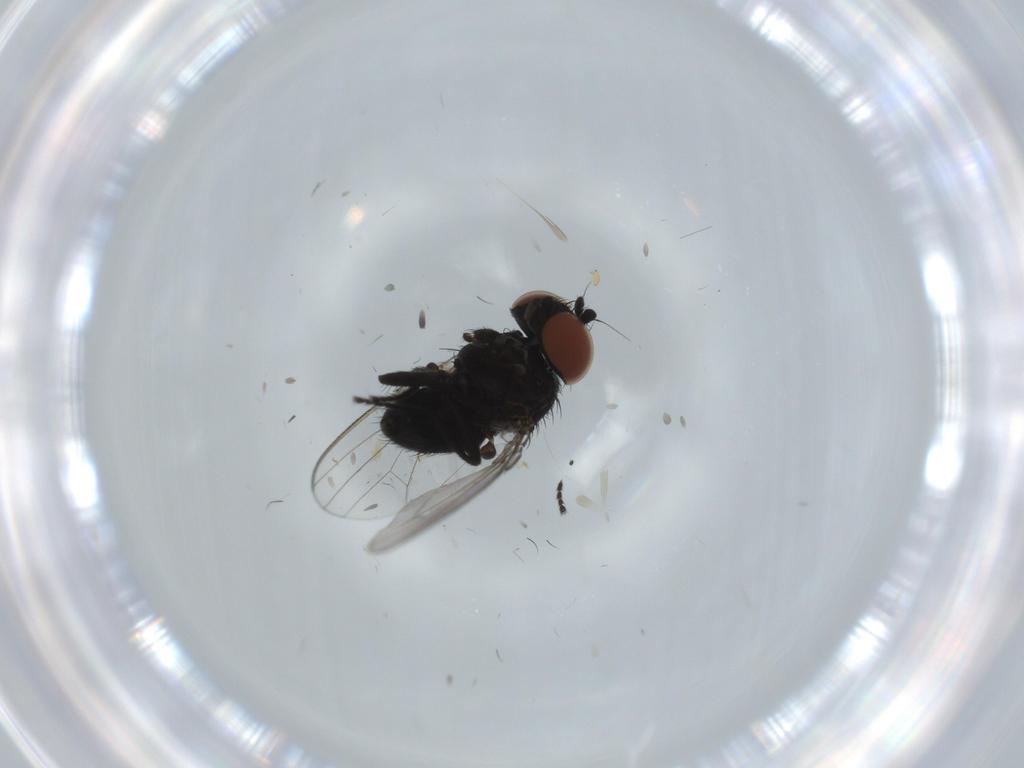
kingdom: Animalia
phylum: Arthropoda
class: Insecta
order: Diptera
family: Milichiidae
